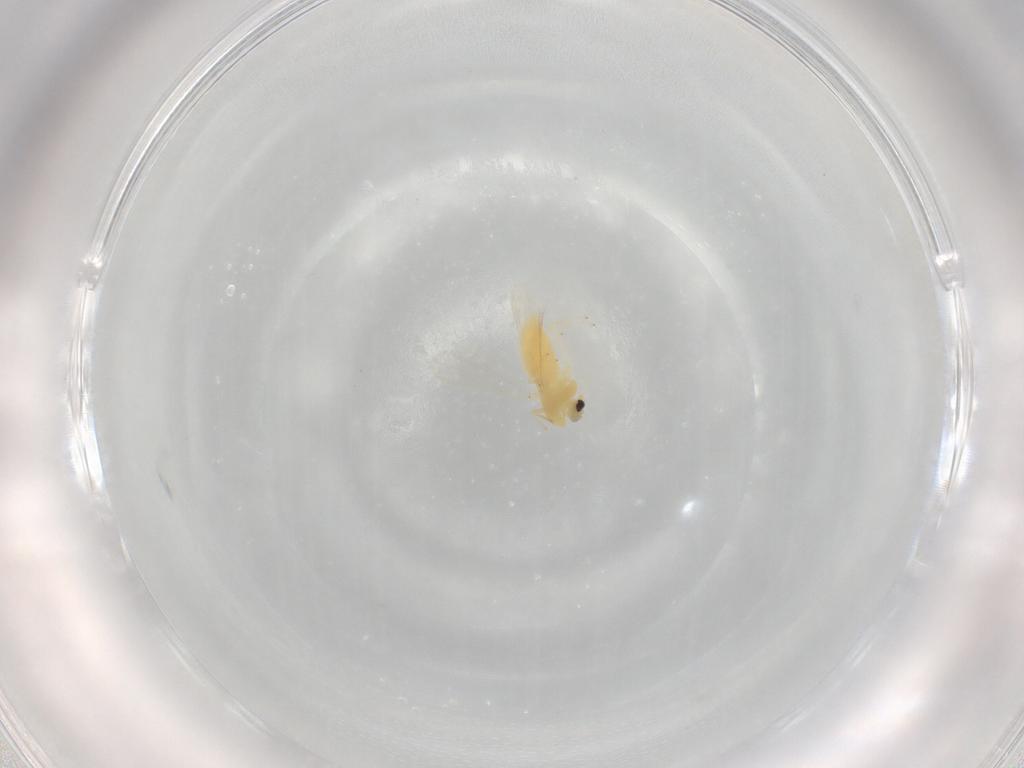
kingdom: Animalia
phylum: Arthropoda
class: Insecta
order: Diptera
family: Chironomidae
